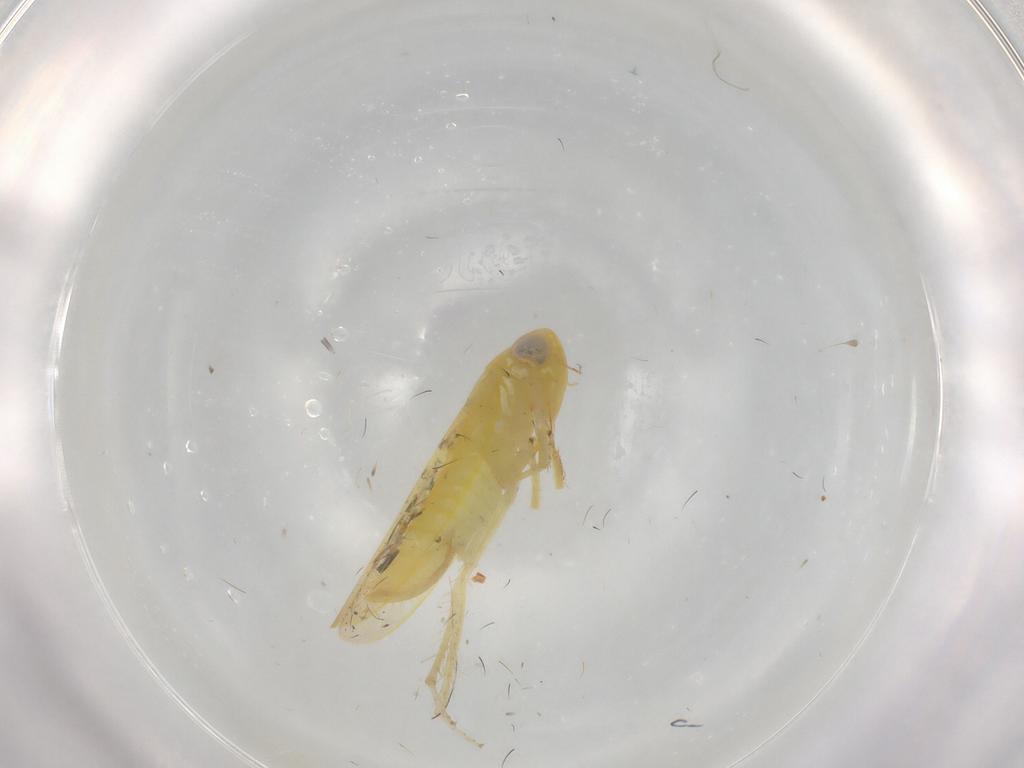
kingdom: Animalia
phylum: Arthropoda
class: Insecta
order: Hemiptera
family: Cicadellidae
